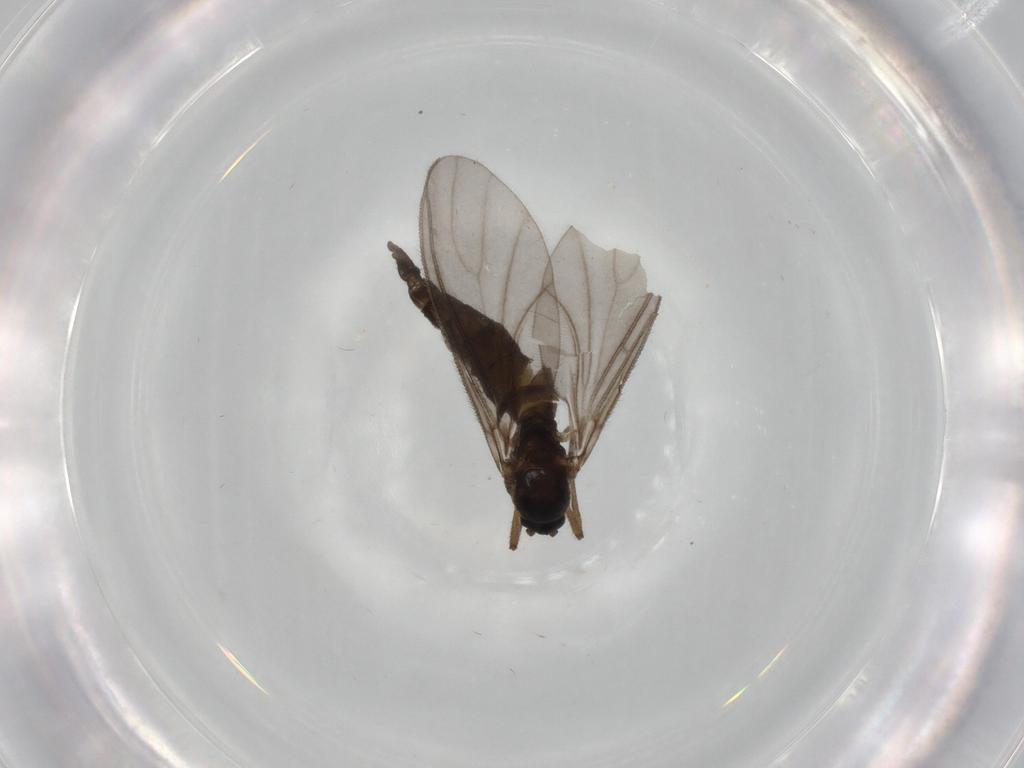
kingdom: Animalia
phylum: Arthropoda
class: Insecta
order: Diptera
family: Sciaridae
